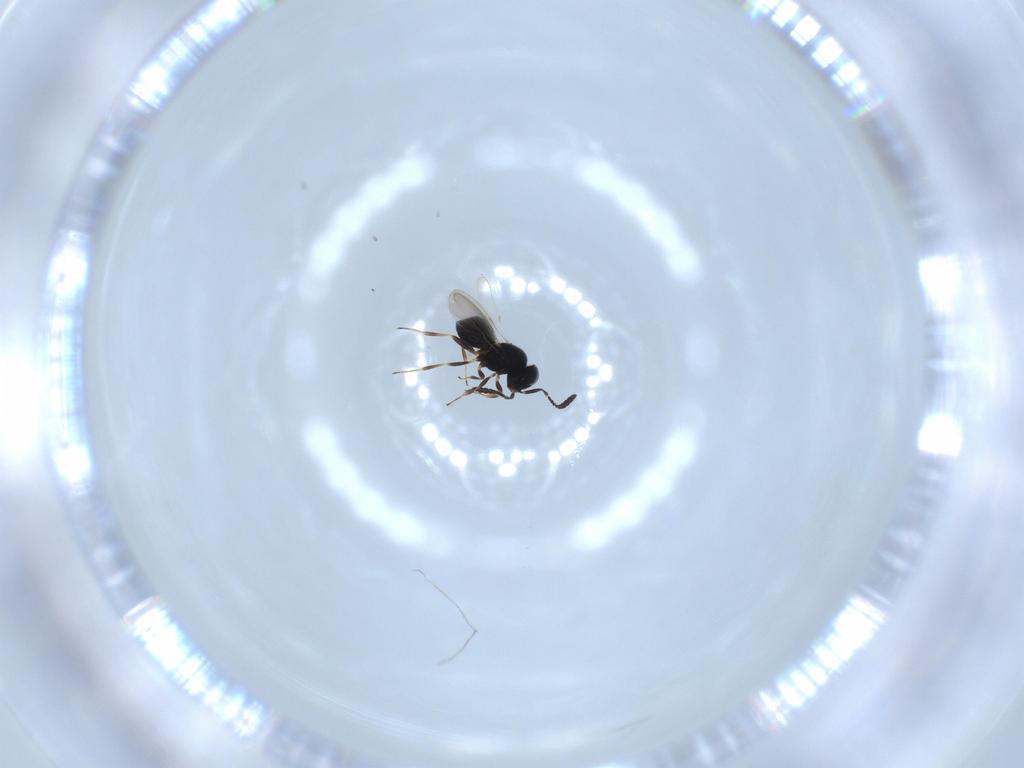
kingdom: Animalia
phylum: Arthropoda
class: Insecta
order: Hymenoptera
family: Scelionidae
